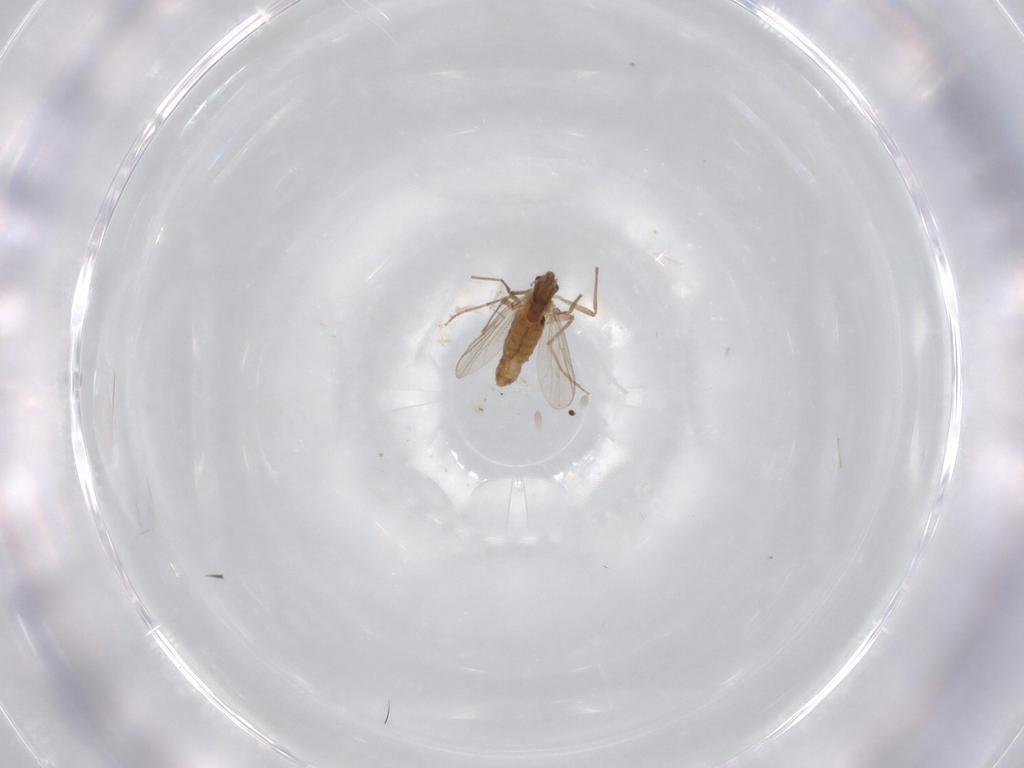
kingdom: Animalia
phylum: Arthropoda
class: Insecta
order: Diptera
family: Chironomidae
